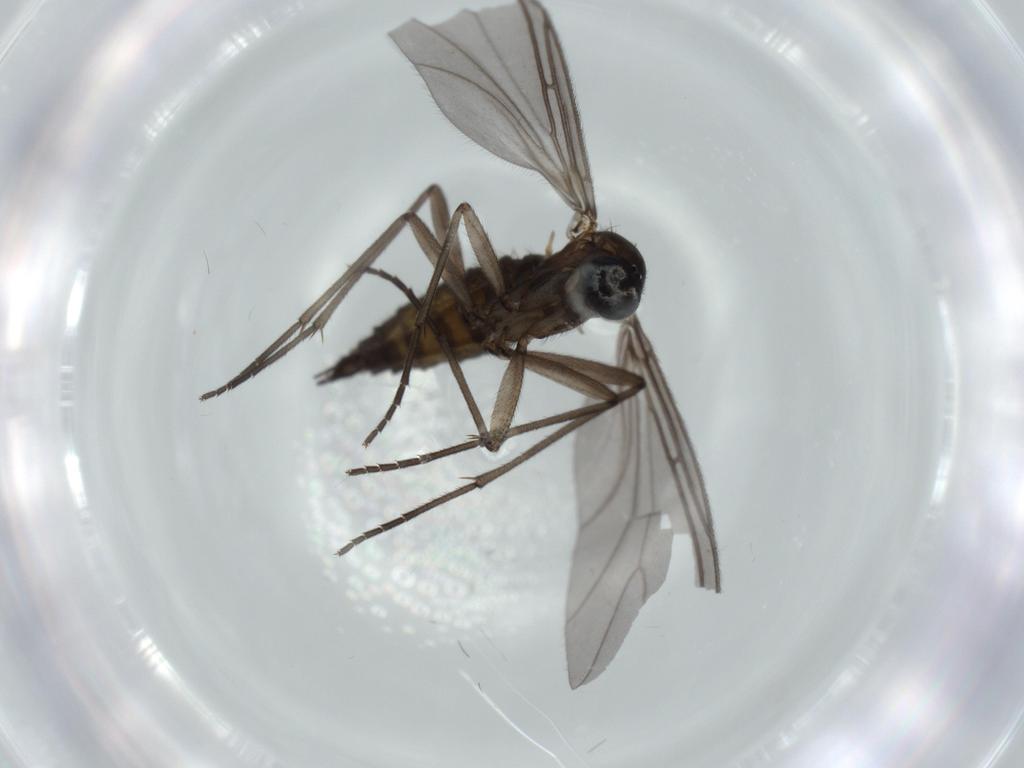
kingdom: Animalia
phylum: Arthropoda
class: Insecta
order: Diptera
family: Sciaridae
